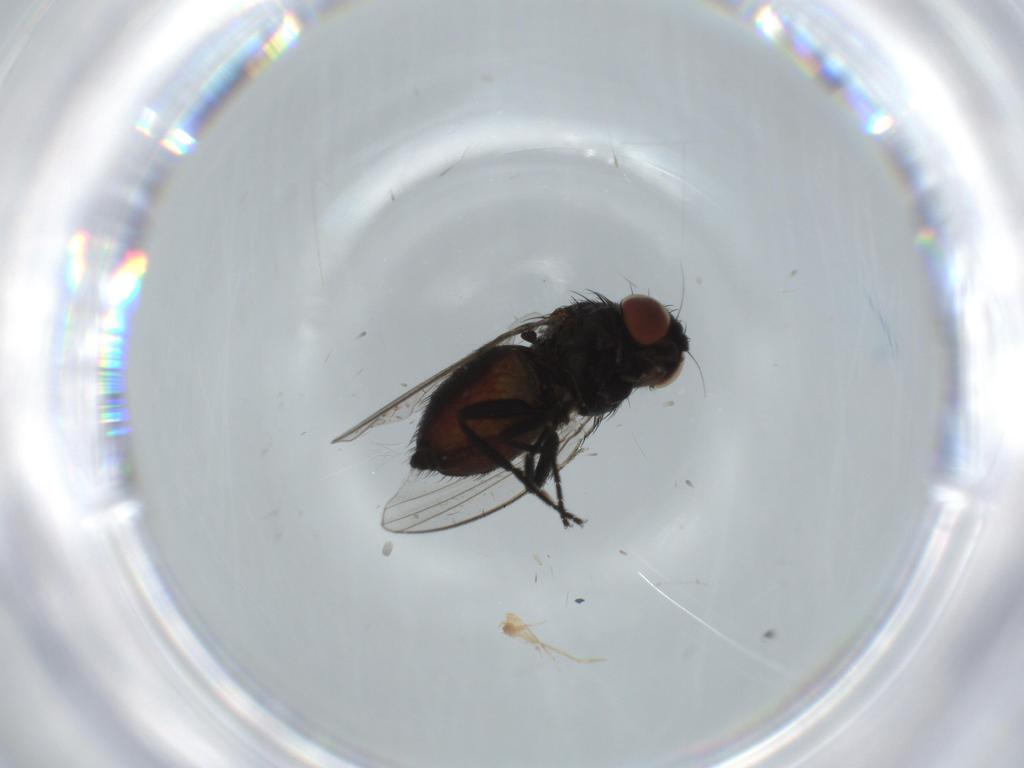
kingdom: Animalia
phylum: Arthropoda
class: Insecta
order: Diptera
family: Milichiidae
